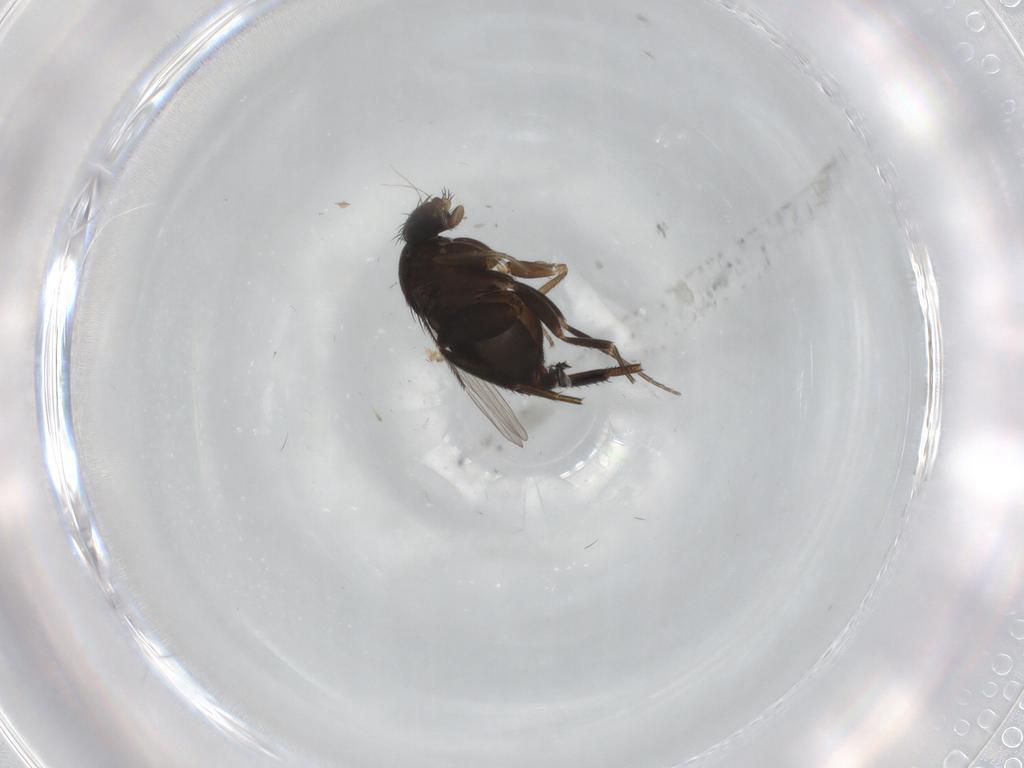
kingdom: Animalia
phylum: Arthropoda
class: Insecta
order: Diptera
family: Phoridae
